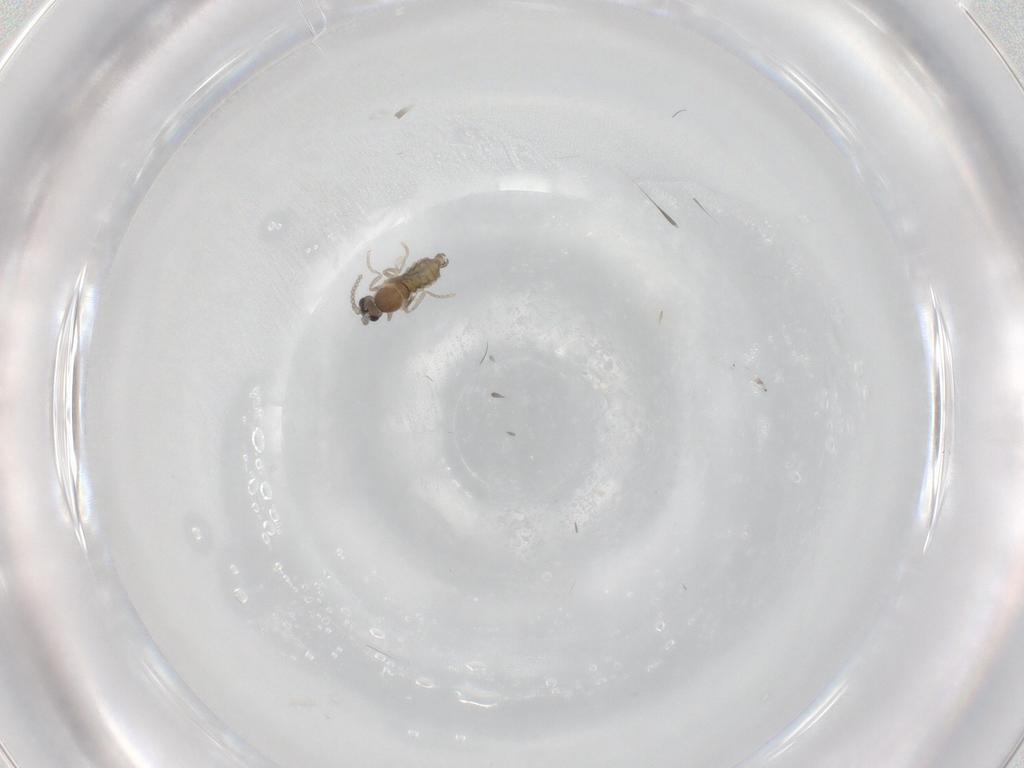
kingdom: Animalia
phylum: Arthropoda
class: Insecta
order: Diptera
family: Cecidomyiidae
